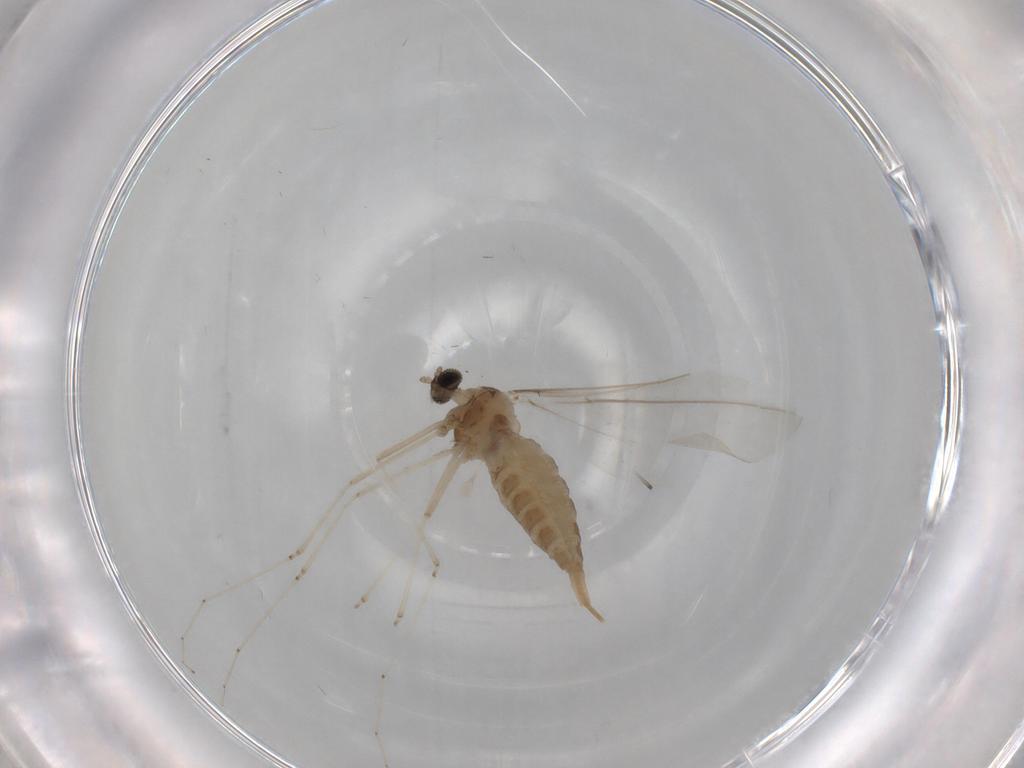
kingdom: Animalia
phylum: Arthropoda
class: Insecta
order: Diptera
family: Cecidomyiidae
